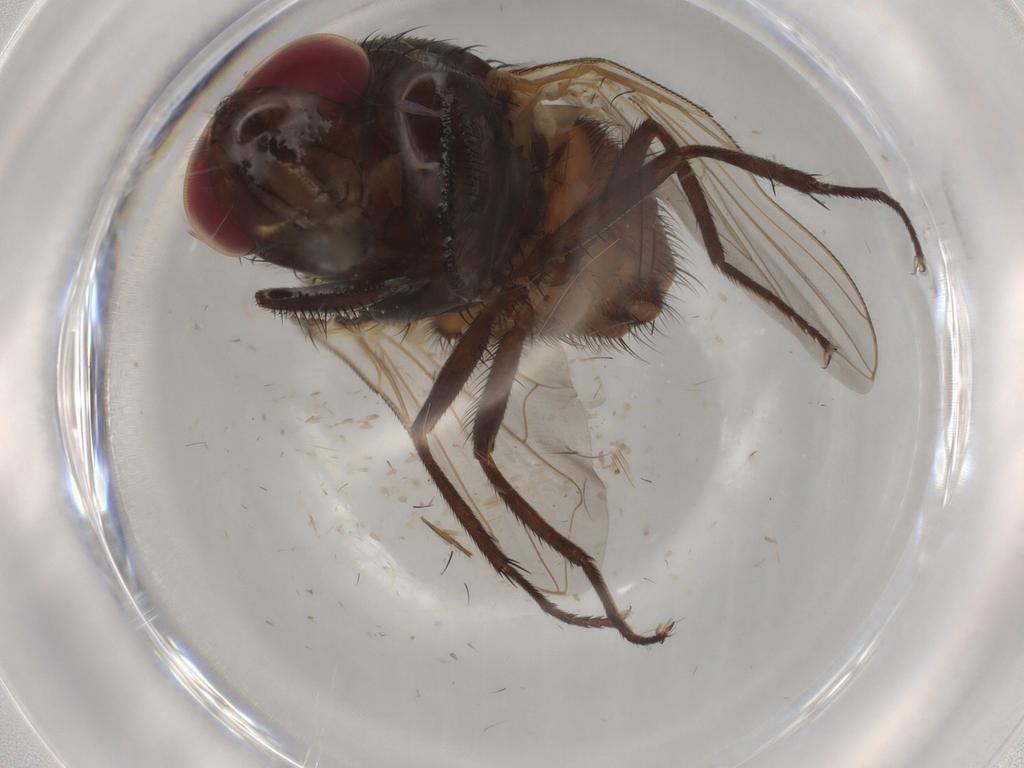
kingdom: Animalia
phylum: Arthropoda
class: Insecta
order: Diptera
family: Muscidae
